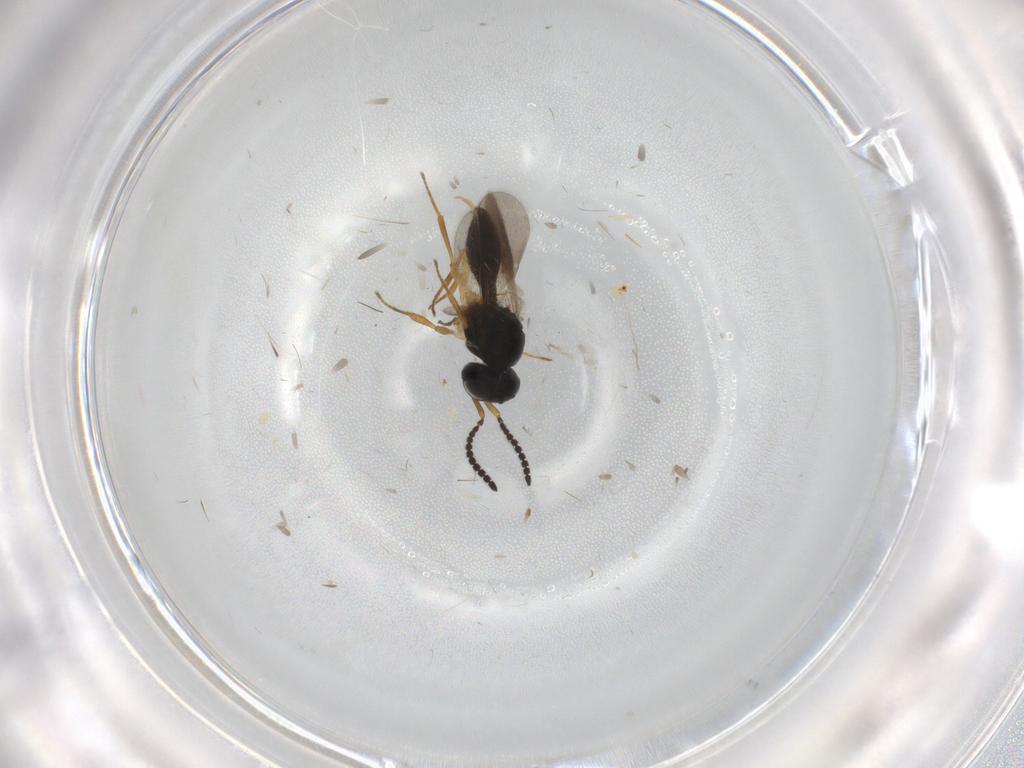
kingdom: Animalia
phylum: Arthropoda
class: Insecta
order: Hymenoptera
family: Scelionidae
